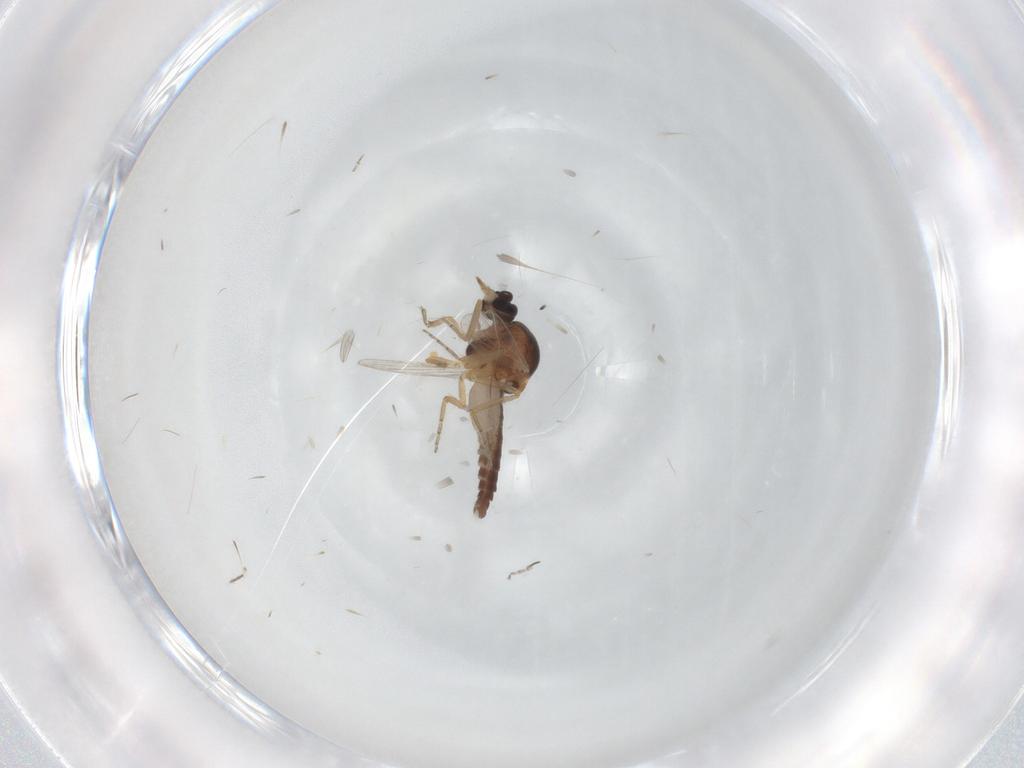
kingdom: Animalia
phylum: Arthropoda
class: Insecta
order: Diptera
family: Ceratopogonidae
